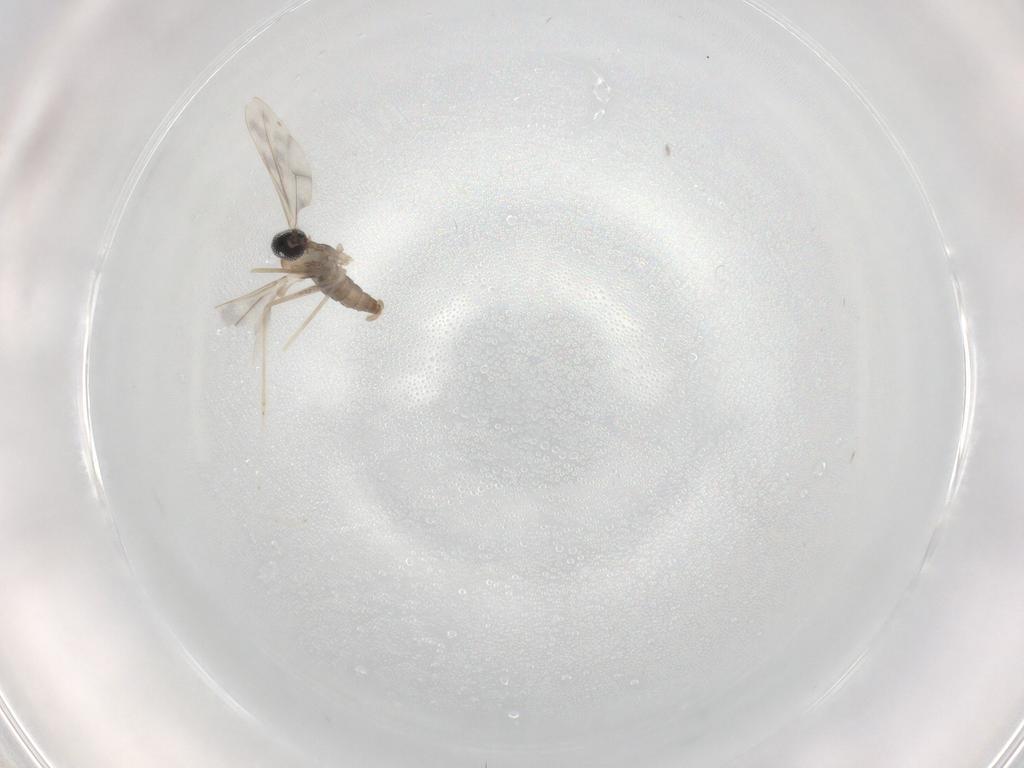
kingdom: Animalia
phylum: Arthropoda
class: Insecta
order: Diptera
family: Cecidomyiidae
